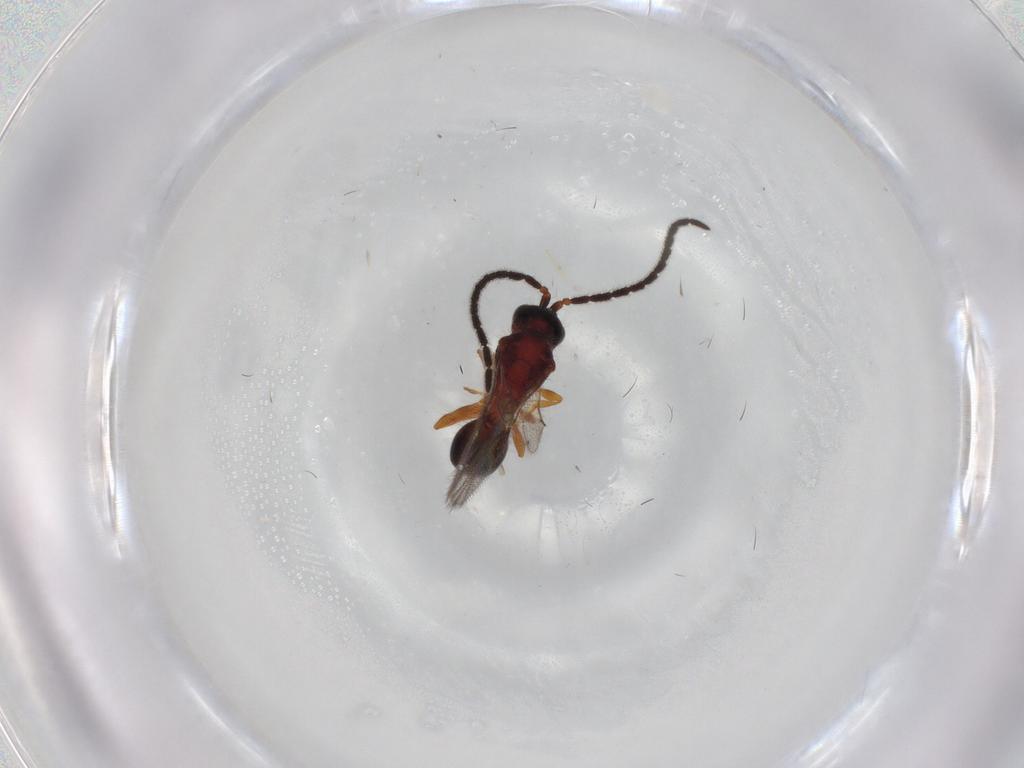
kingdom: Animalia
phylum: Arthropoda
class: Insecta
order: Hymenoptera
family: Diapriidae
